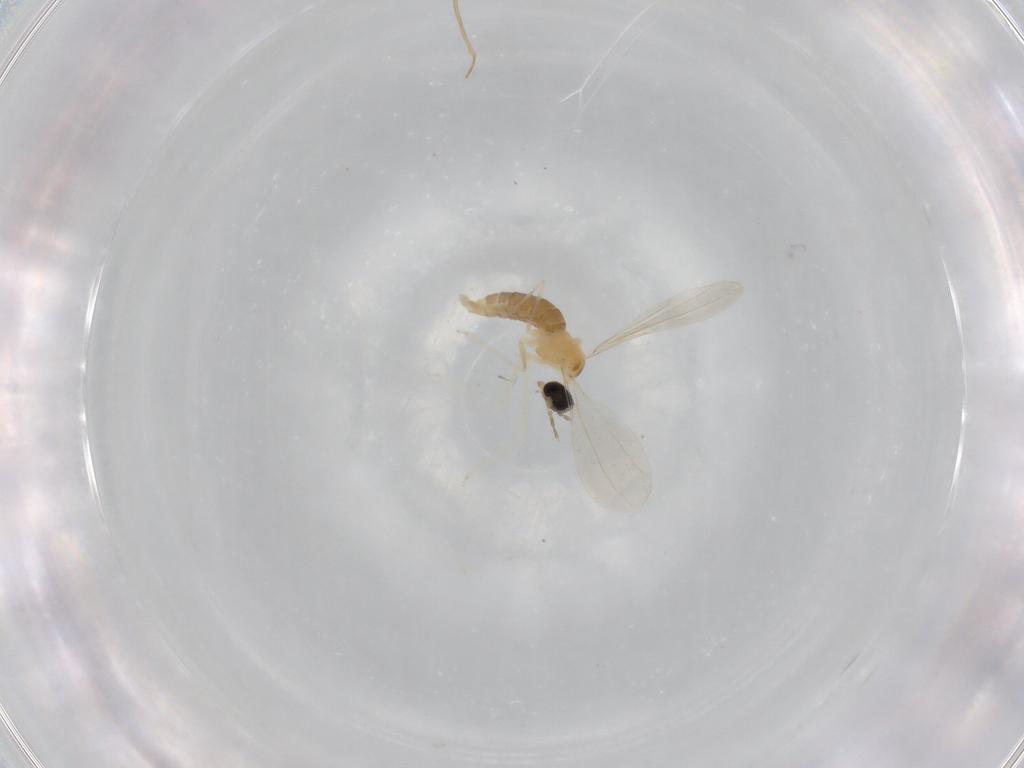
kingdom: Animalia
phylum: Arthropoda
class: Insecta
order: Diptera
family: Cecidomyiidae
